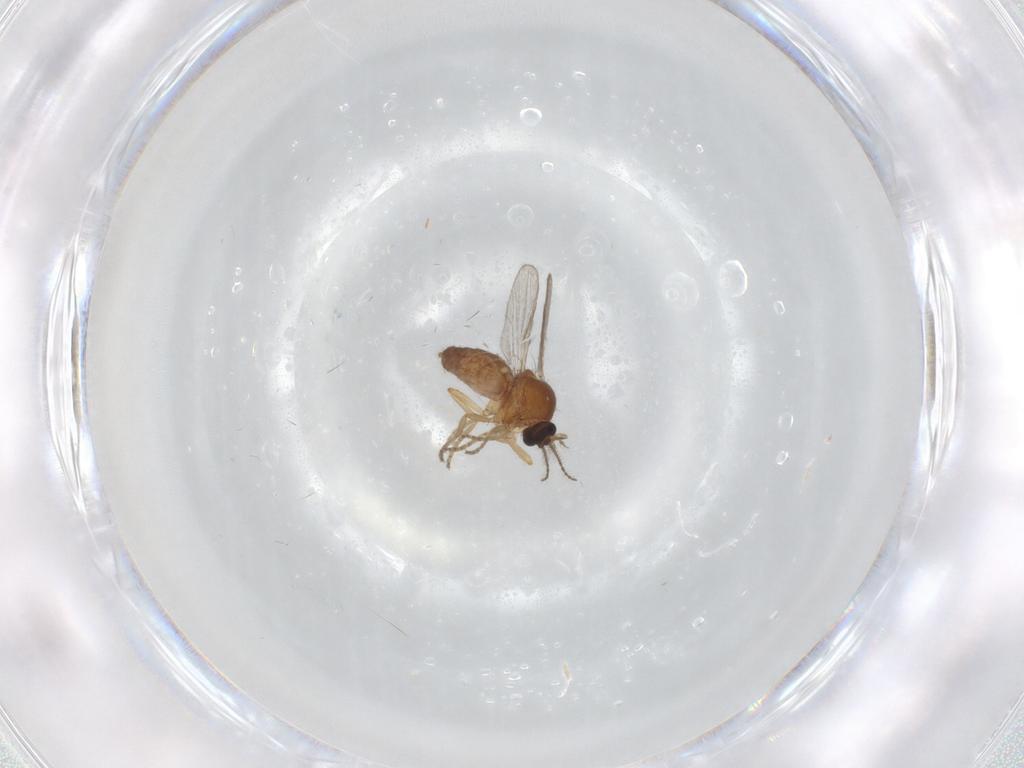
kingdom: Animalia
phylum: Arthropoda
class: Insecta
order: Diptera
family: Ceratopogonidae
